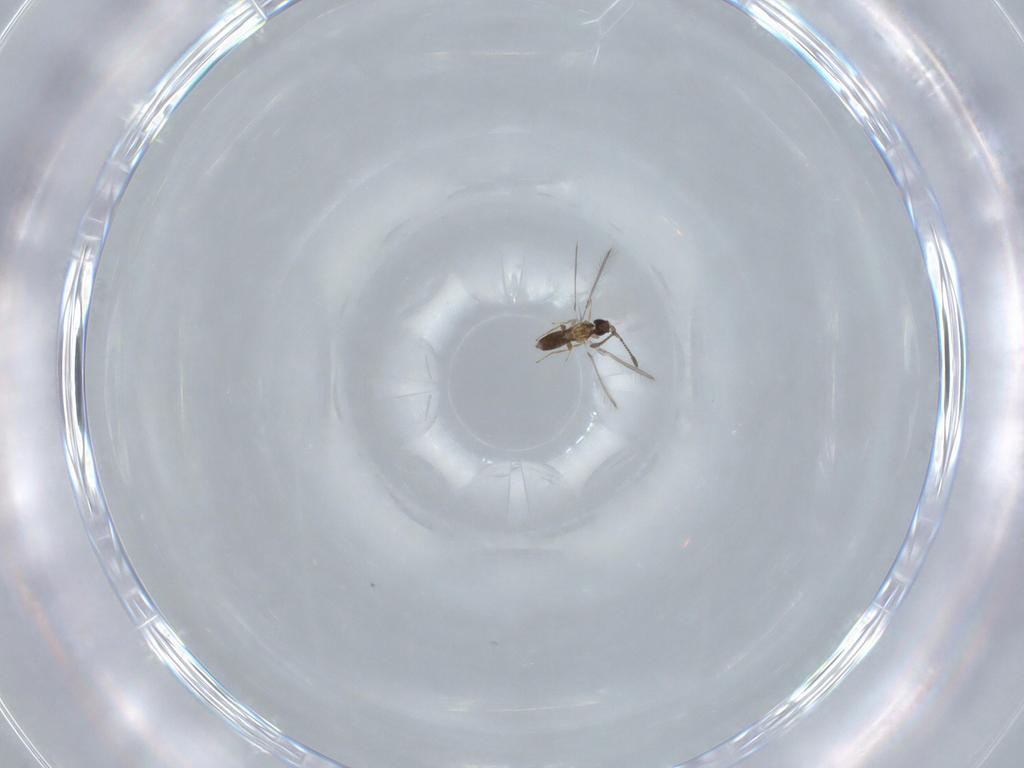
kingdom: Animalia
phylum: Arthropoda
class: Insecta
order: Hymenoptera
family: Mymaridae
